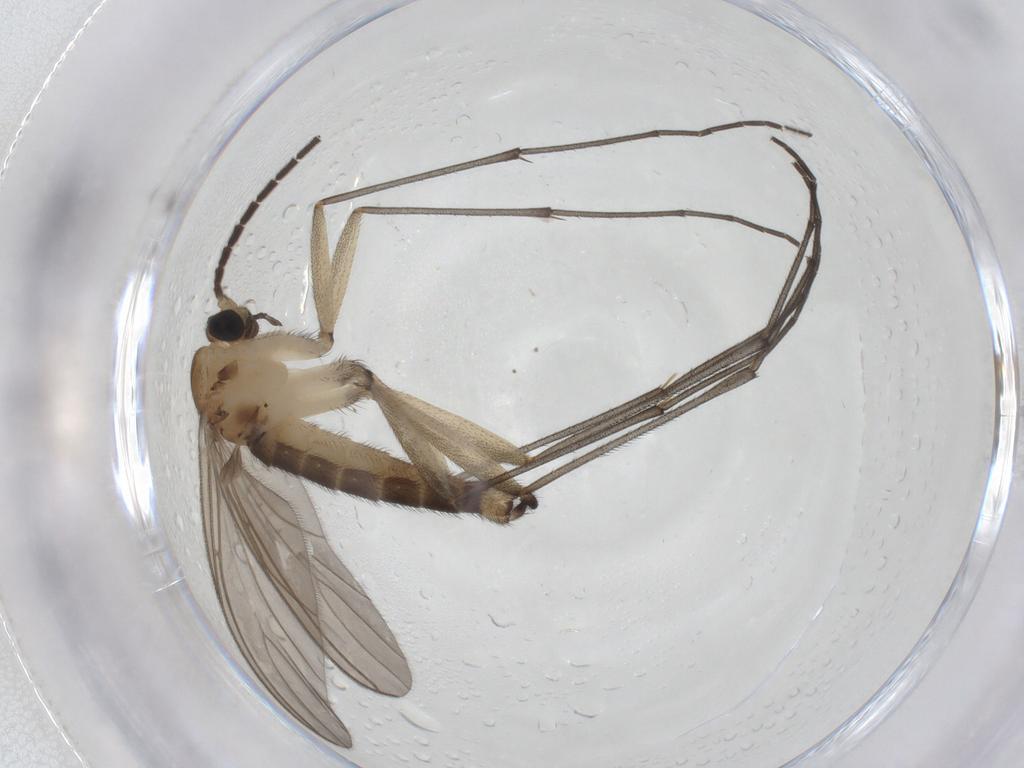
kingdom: Animalia
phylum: Arthropoda
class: Insecta
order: Diptera
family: Sciaridae
